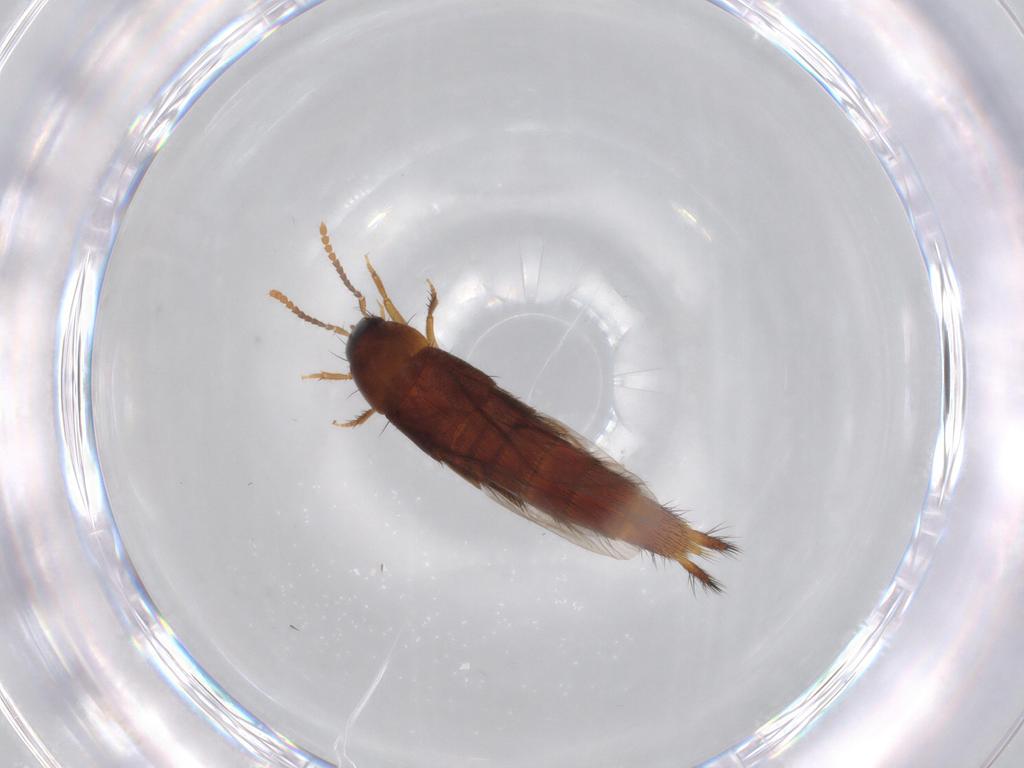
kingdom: Animalia
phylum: Arthropoda
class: Insecta
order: Coleoptera
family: Staphylinidae
